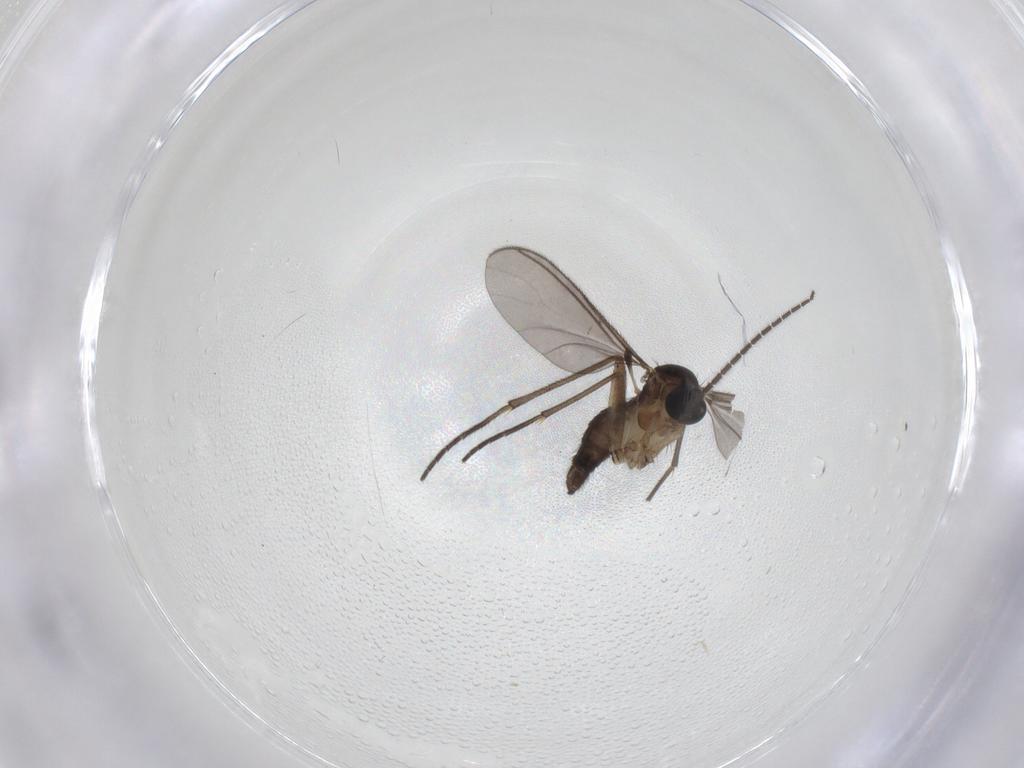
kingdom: Animalia
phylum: Arthropoda
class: Insecta
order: Diptera
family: Sciaridae
